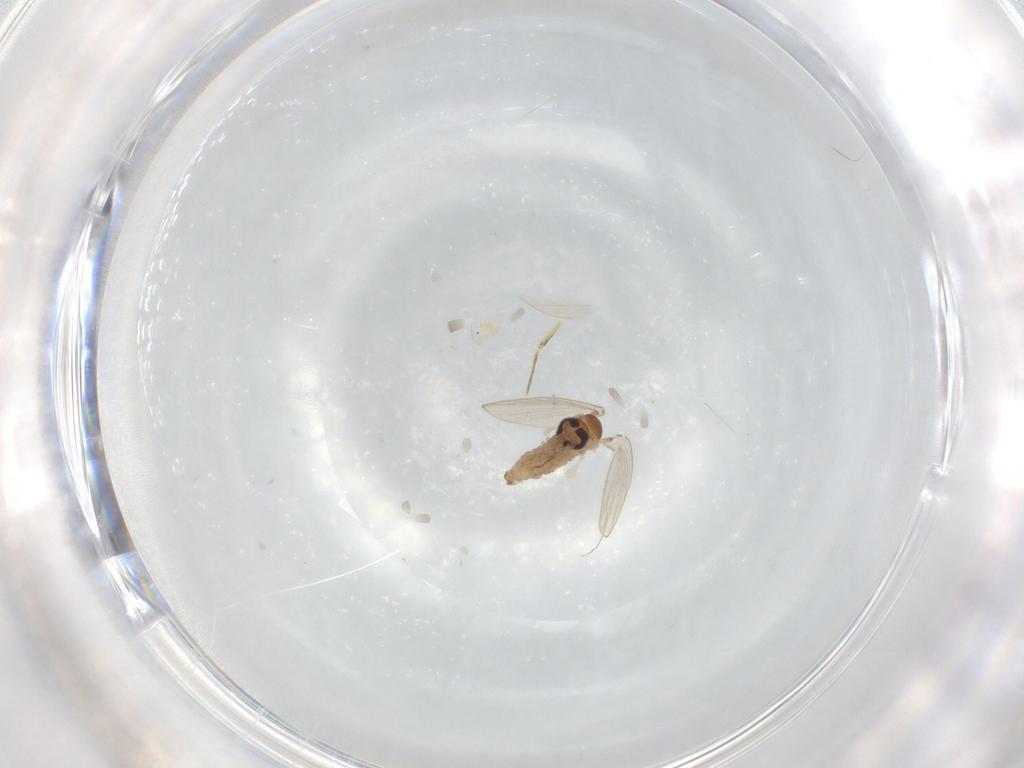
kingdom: Animalia
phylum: Arthropoda
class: Insecta
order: Diptera
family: Psychodidae
